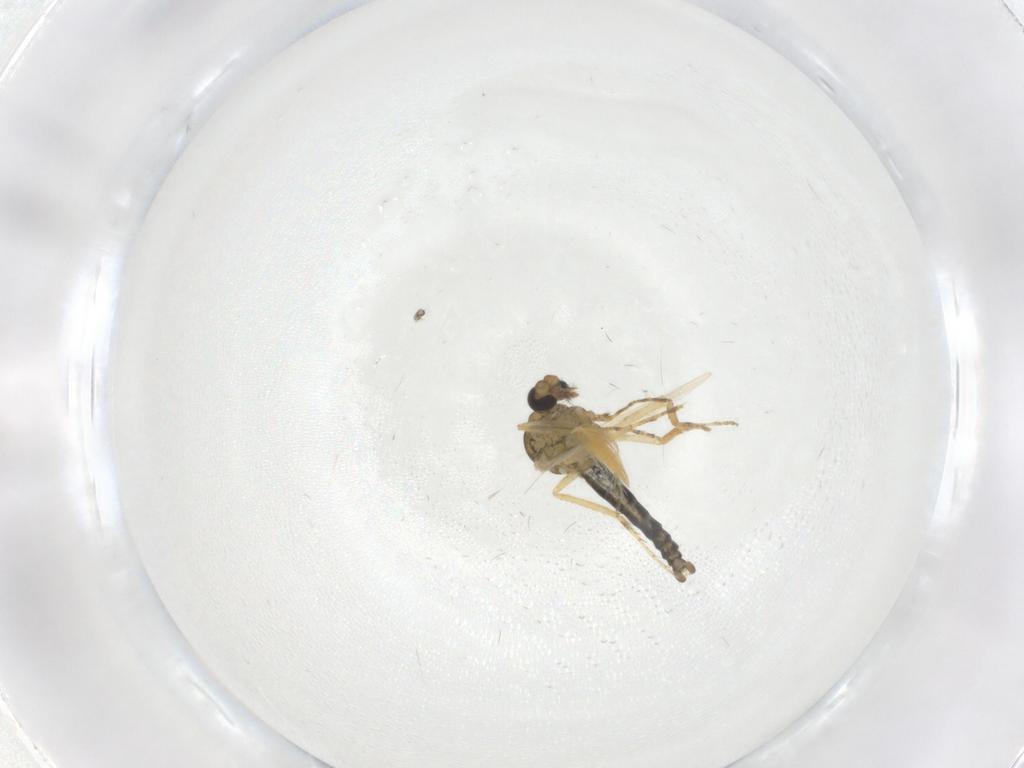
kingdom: Animalia
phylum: Arthropoda
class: Insecta
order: Diptera
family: Ceratopogonidae
